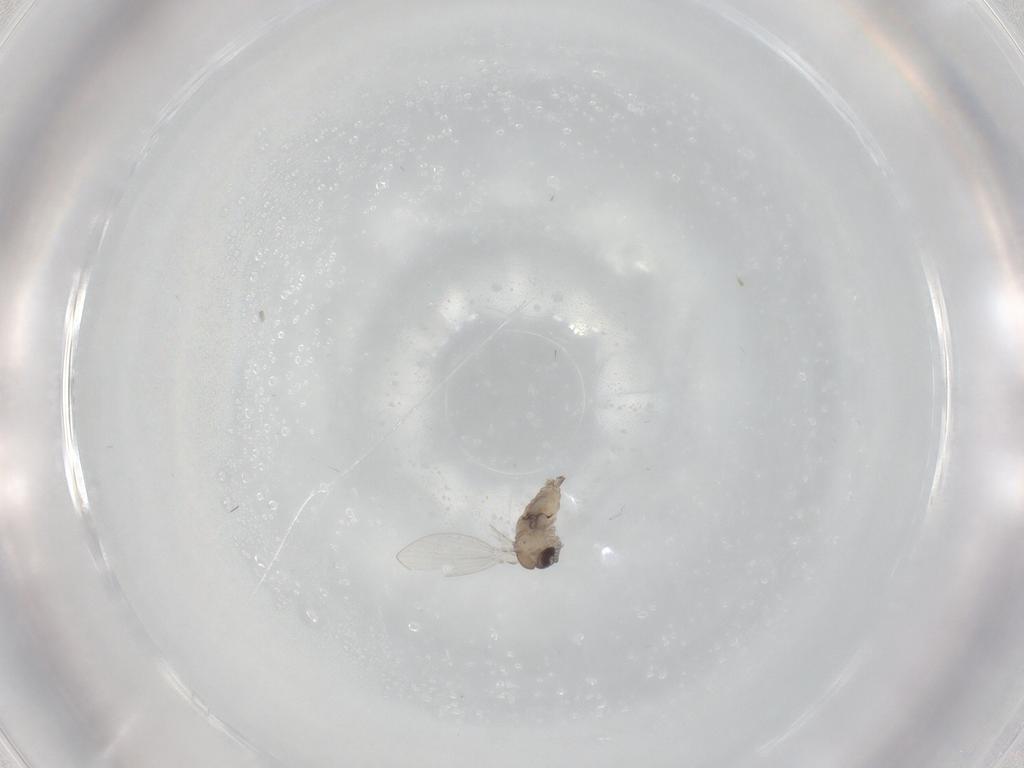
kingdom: Animalia
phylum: Arthropoda
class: Insecta
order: Diptera
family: Psychodidae
